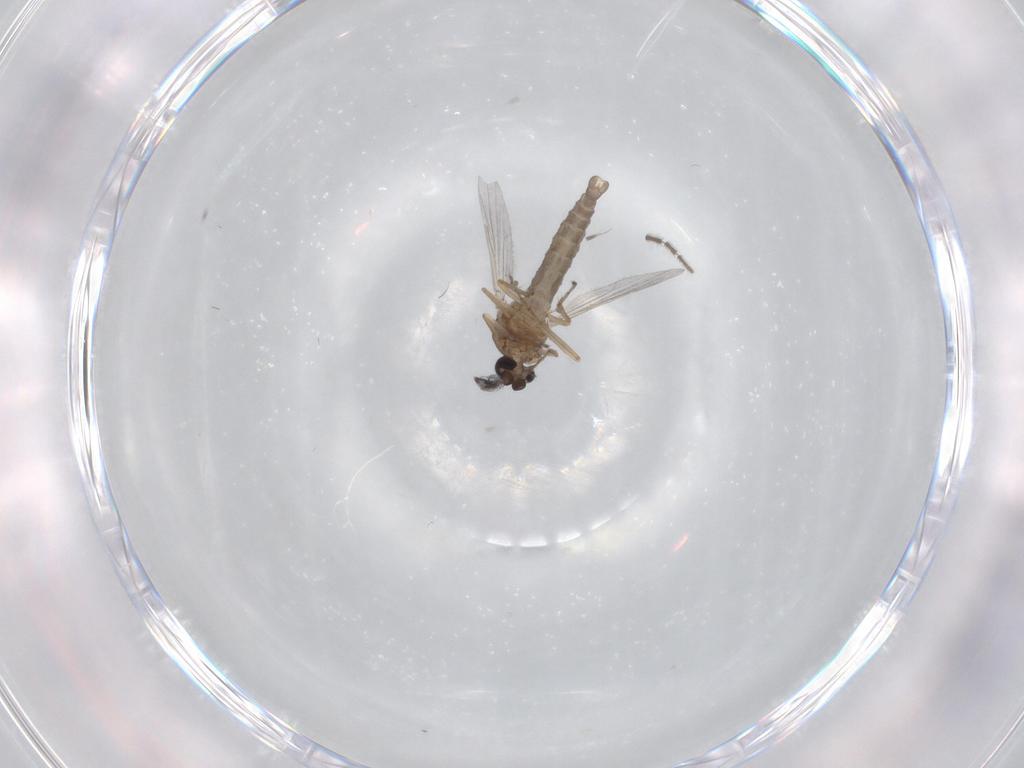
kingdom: Animalia
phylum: Arthropoda
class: Insecta
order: Diptera
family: Ceratopogonidae
